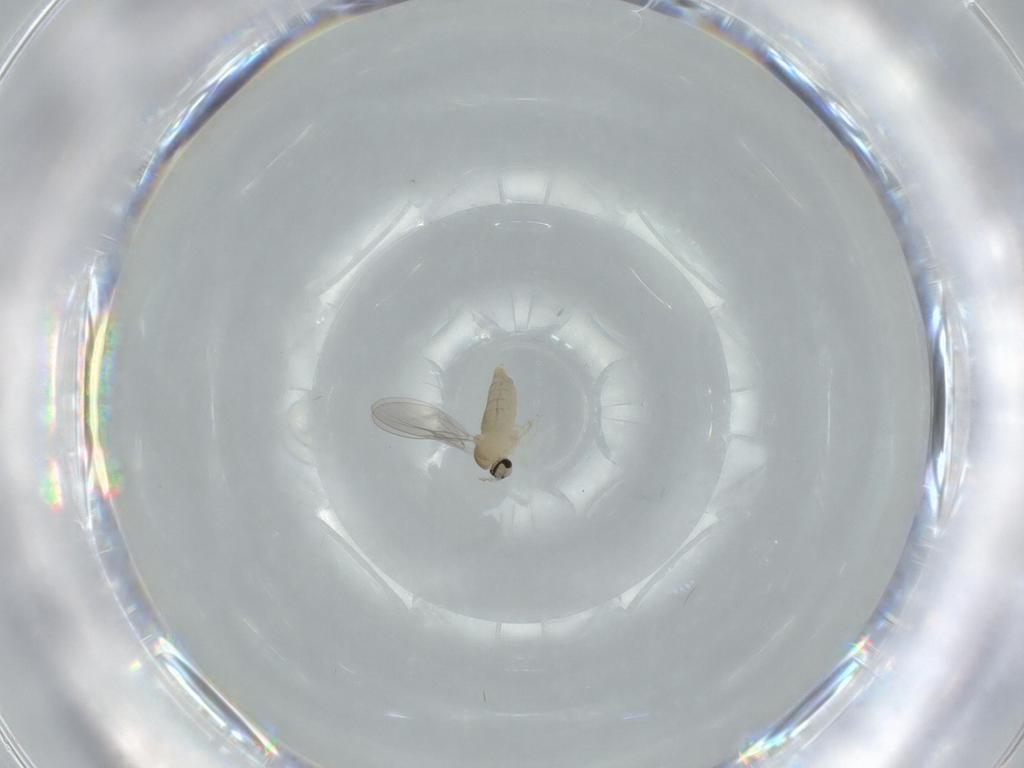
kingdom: Animalia
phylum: Arthropoda
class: Insecta
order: Diptera
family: Cecidomyiidae
